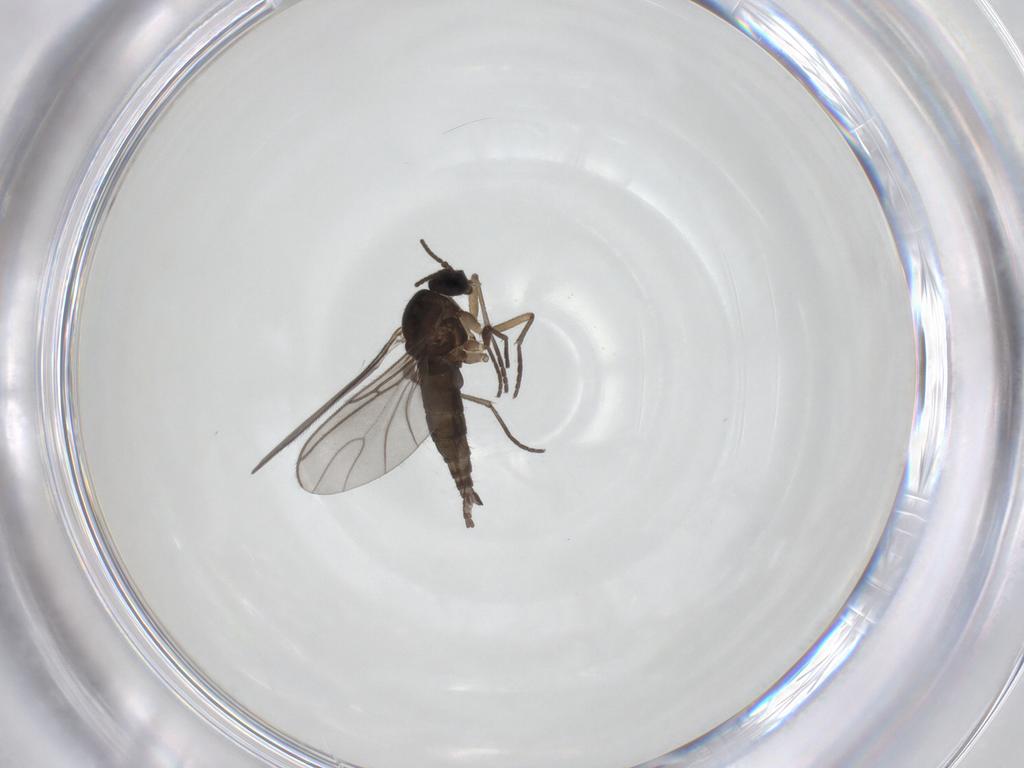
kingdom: Animalia
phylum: Arthropoda
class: Insecta
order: Diptera
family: Sciaridae
